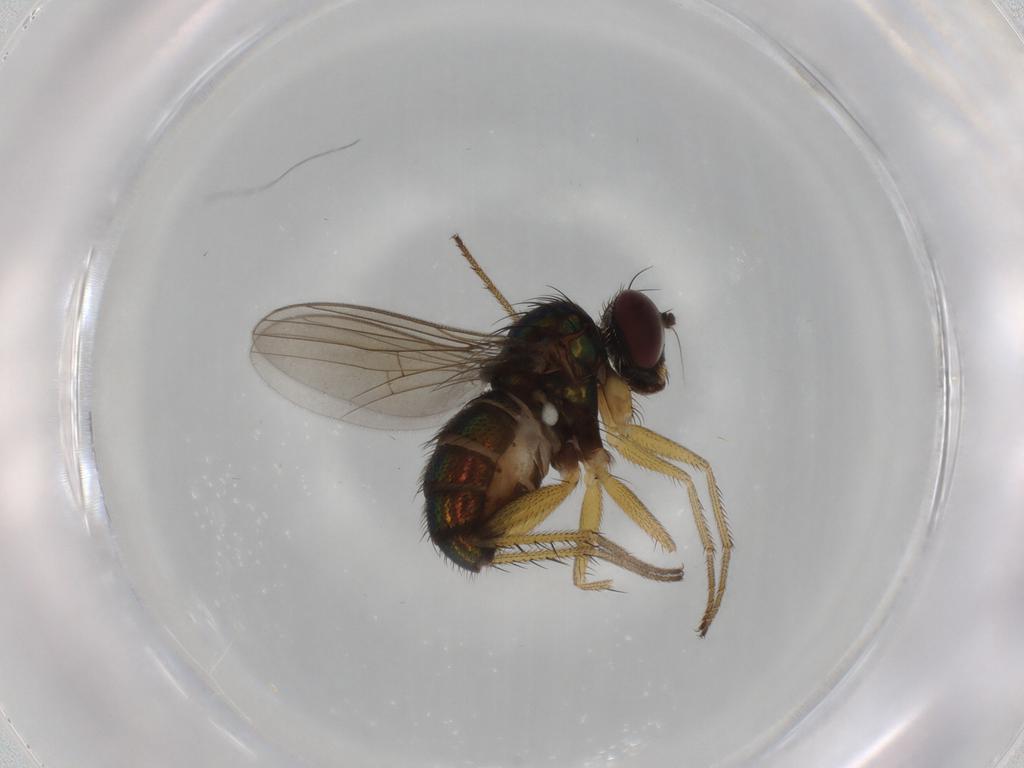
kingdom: Animalia
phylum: Arthropoda
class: Insecta
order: Diptera
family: Dolichopodidae
